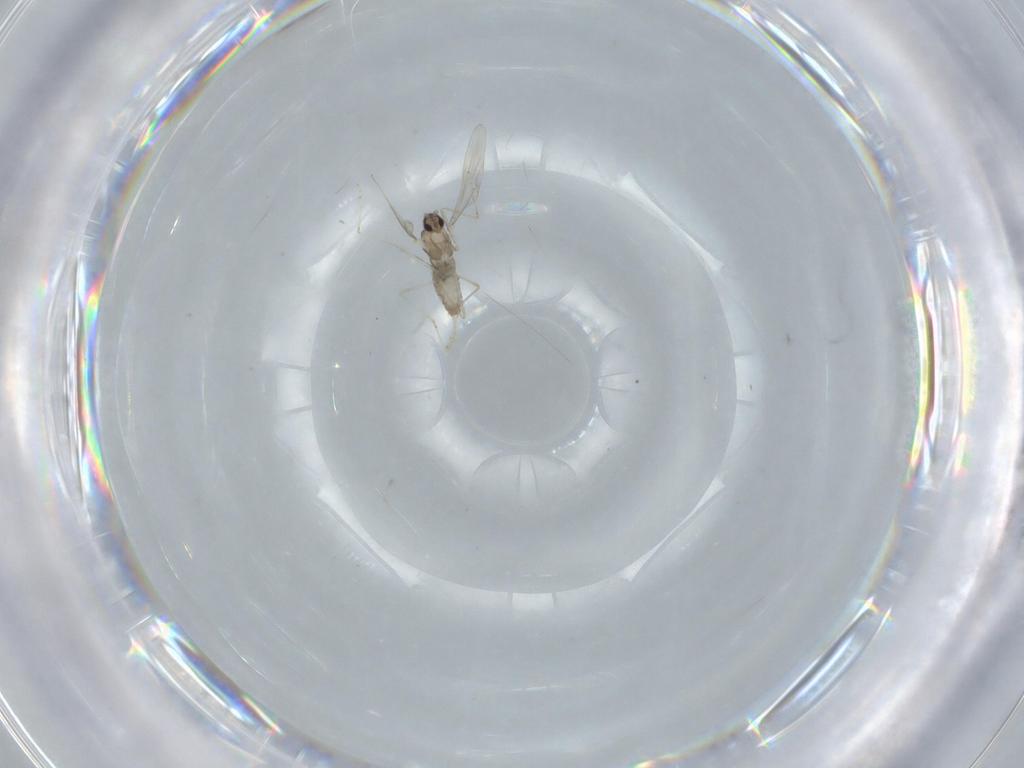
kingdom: Animalia
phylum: Arthropoda
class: Insecta
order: Diptera
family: Cecidomyiidae
